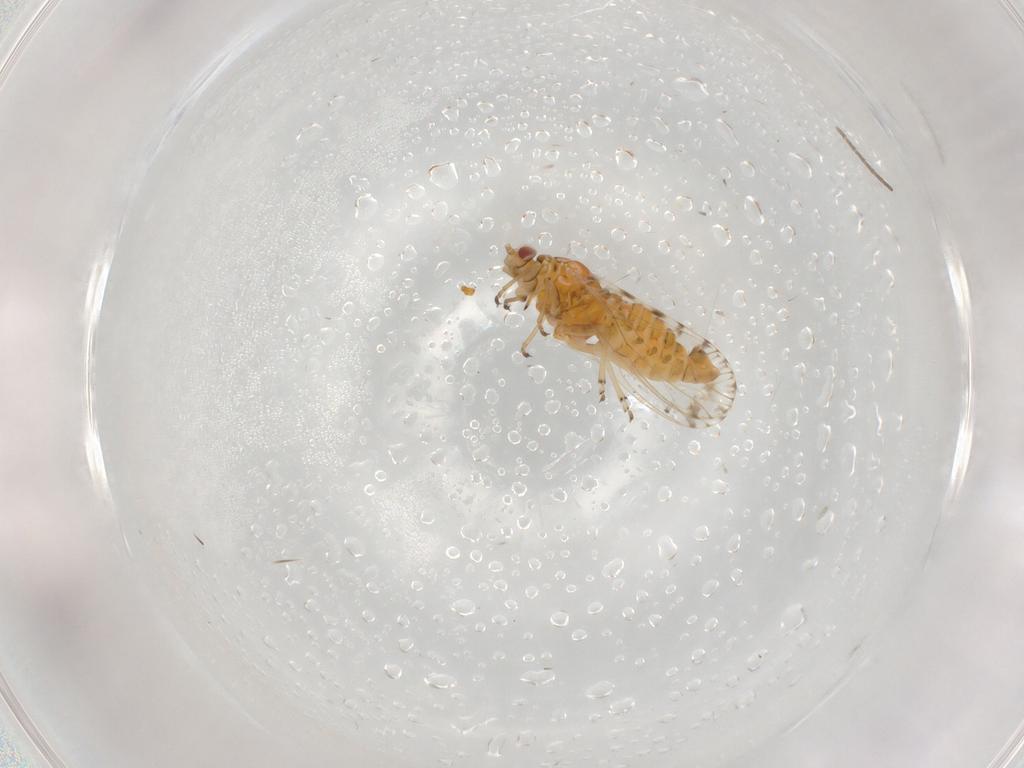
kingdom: Animalia
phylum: Arthropoda
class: Insecta
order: Hemiptera
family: Psyllidae
